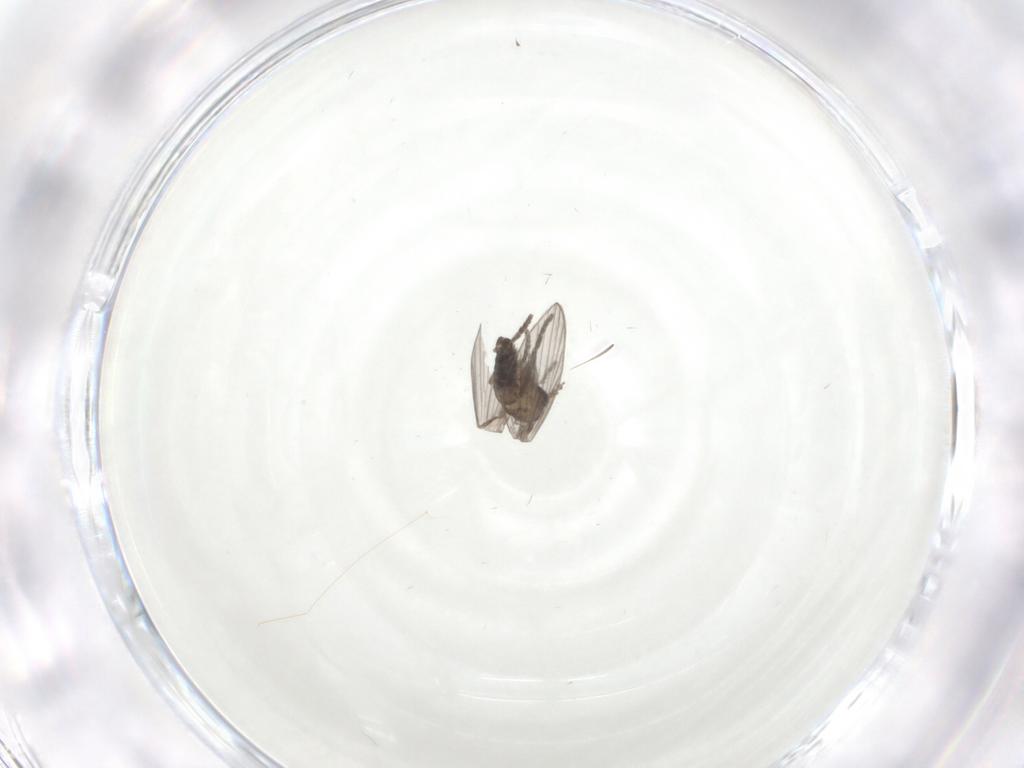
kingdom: Animalia
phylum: Arthropoda
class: Insecta
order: Diptera
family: Psychodidae
